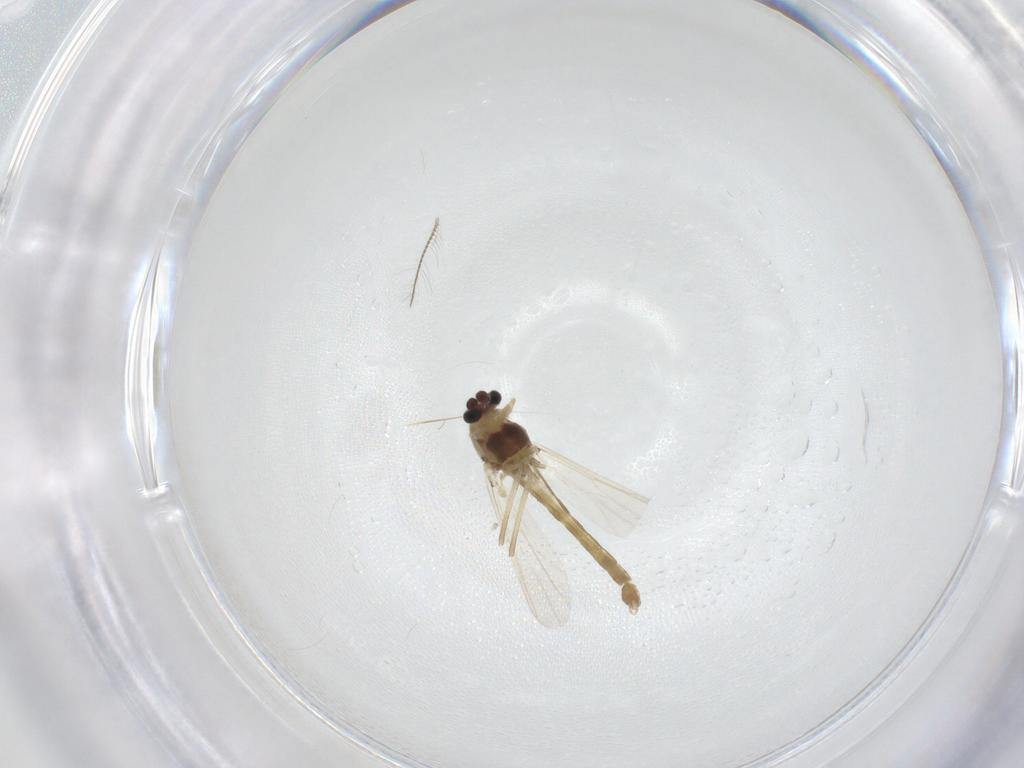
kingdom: Animalia
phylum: Arthropoda
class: Insecta
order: Diptera
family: Chironomidae
